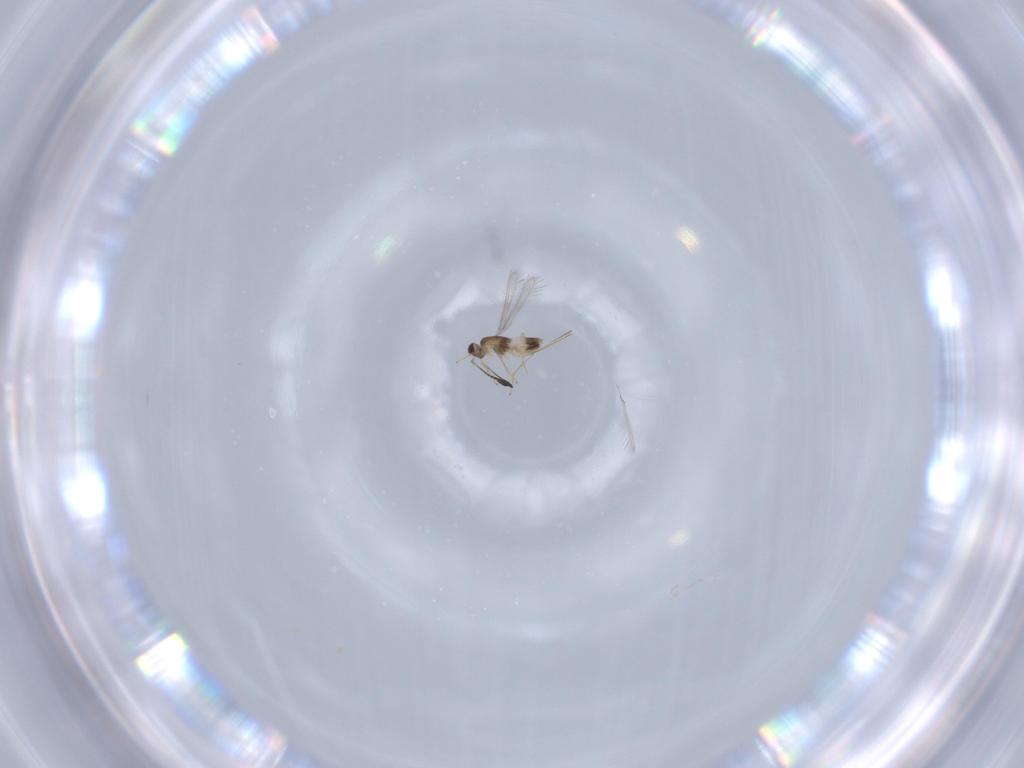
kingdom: Animalia
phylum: Arthropoda
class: Insecta
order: Hymenoptera
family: Mymaridae
